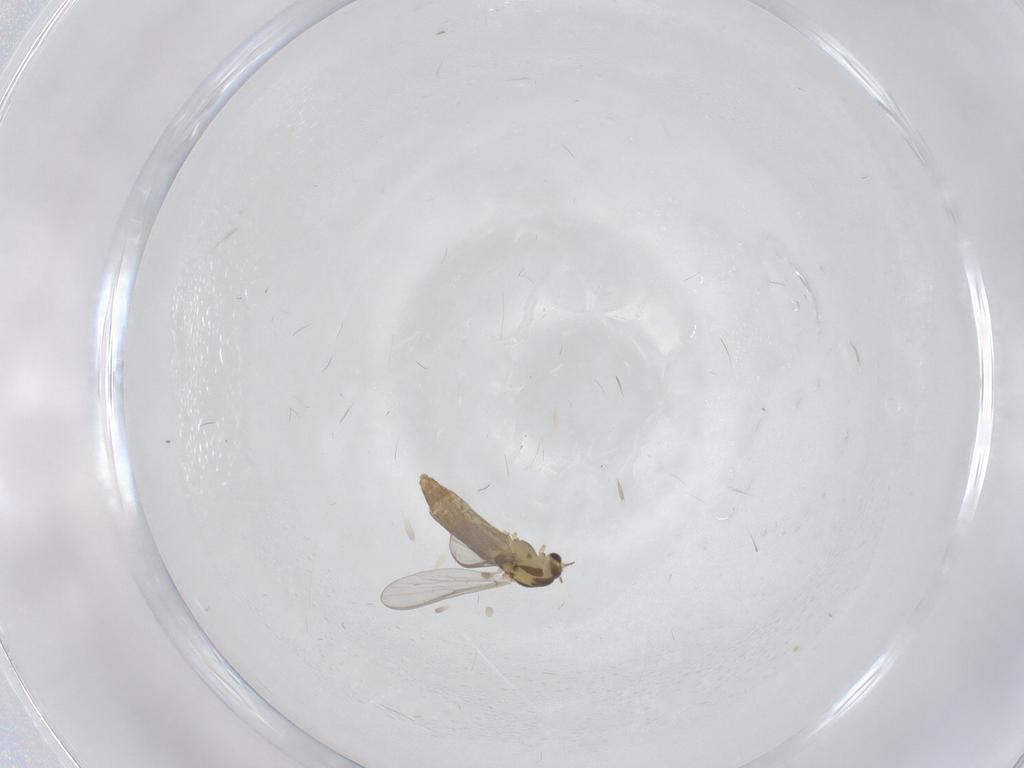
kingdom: Animalia
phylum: Arthropoda
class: Insecta
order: Diptera
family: Chironomidae
